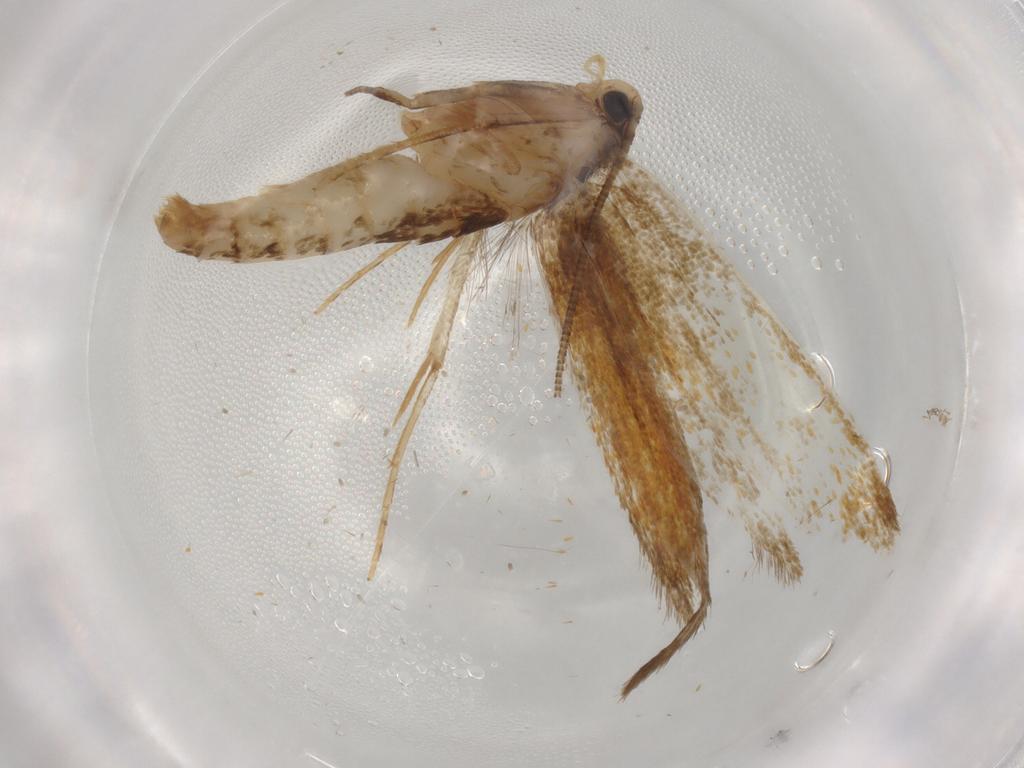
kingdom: Animalia
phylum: Arthropoda
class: Insecta
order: Lepidoptera
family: Tineidae
